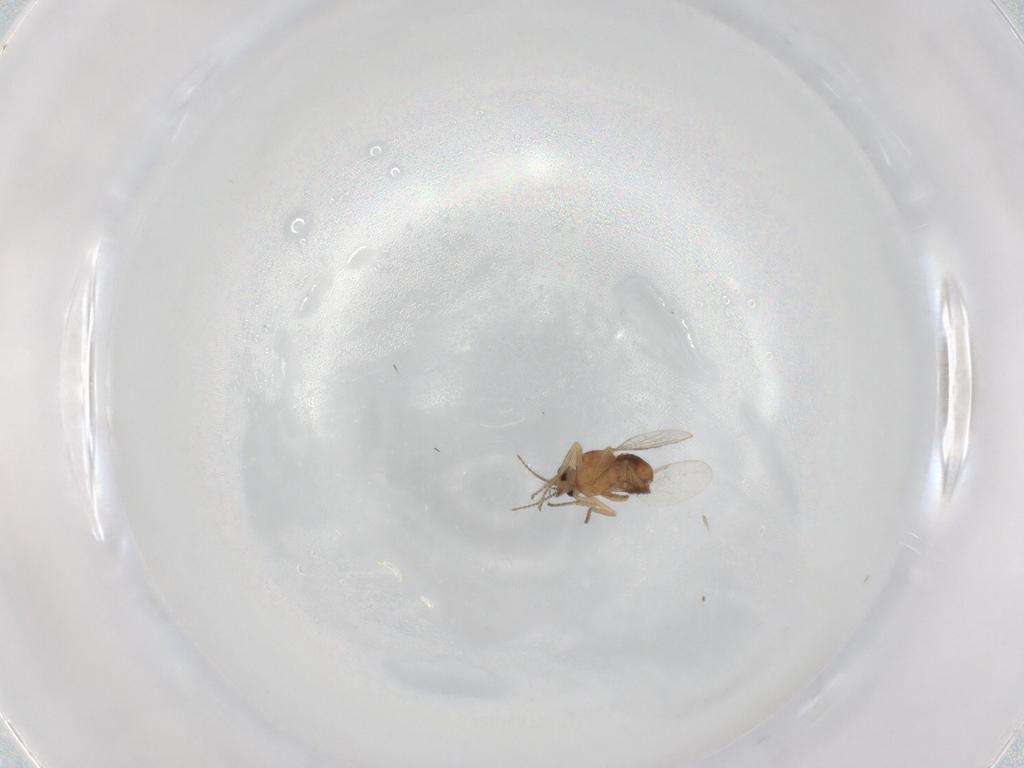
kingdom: Animalia
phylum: Arthropoda
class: Insecta
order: Diptera
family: Ceratopogonidae
